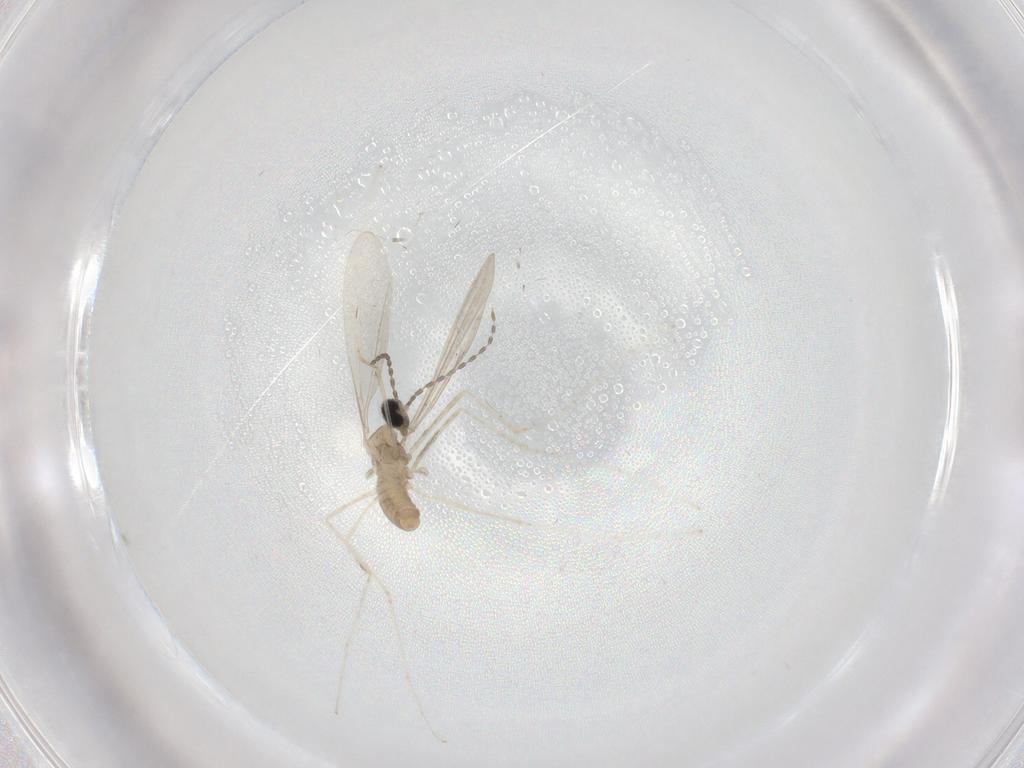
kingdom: Animalia
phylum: Arthropoda
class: Insecta
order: Diptera
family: Cecidomyiidae
